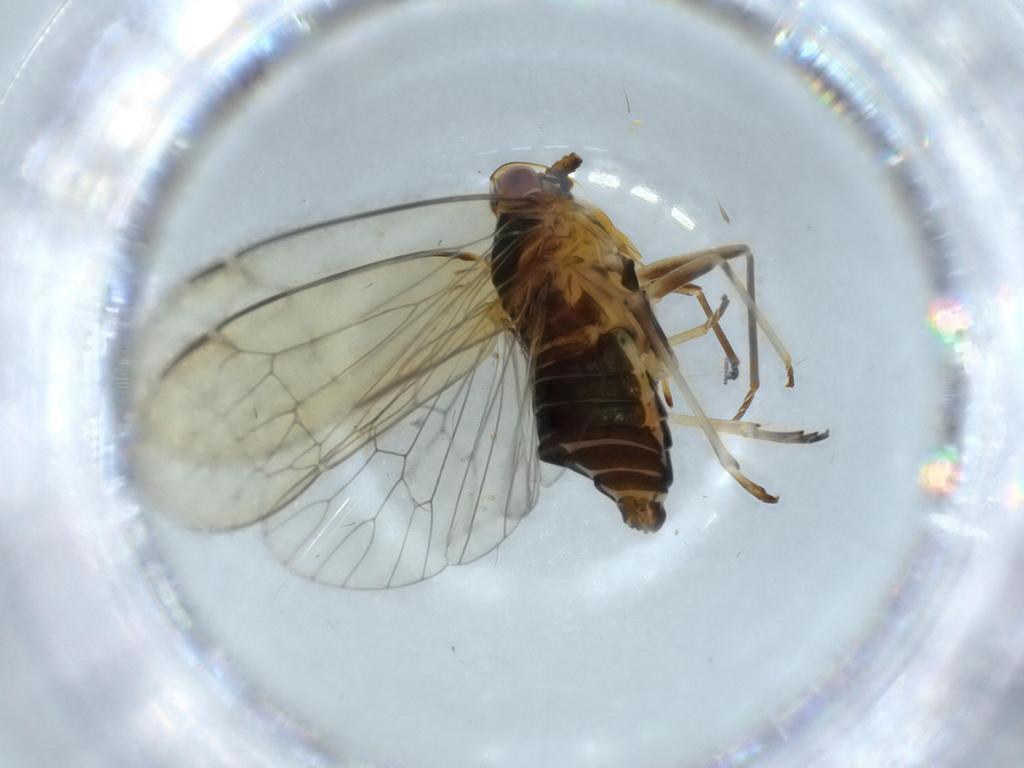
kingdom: Animalia
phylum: Arthropoda
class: Insecta
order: Hemiptera
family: Kinnaridae
